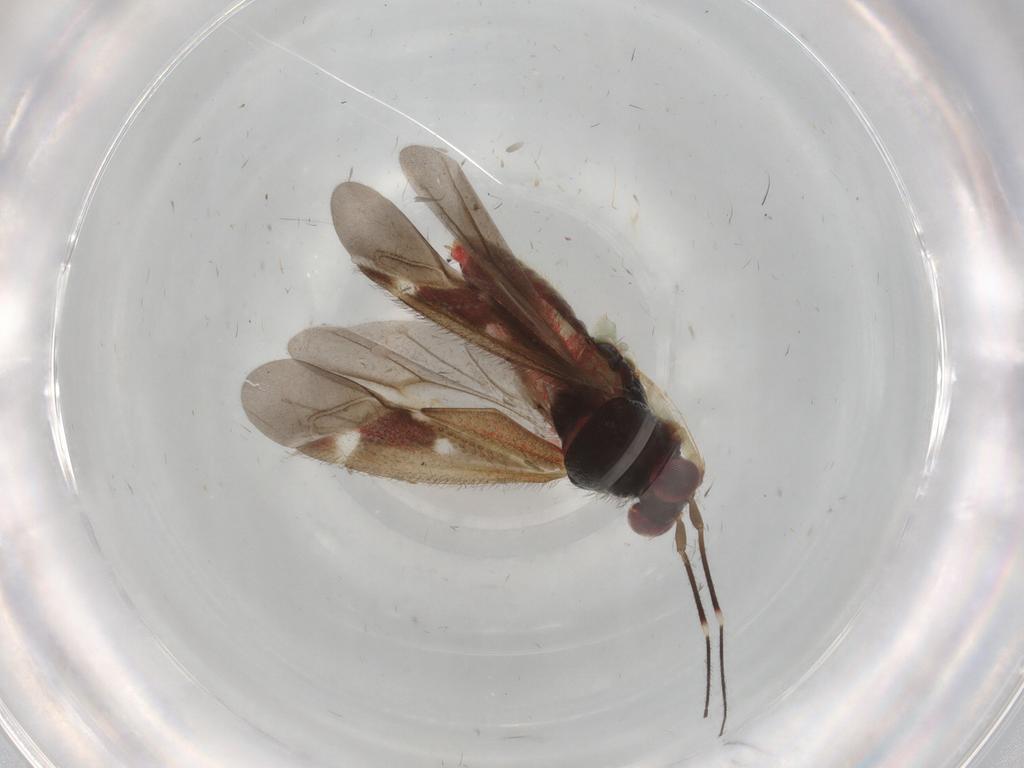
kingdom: Animalia
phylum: Arthropoda
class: Insecta
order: Hemiptera
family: Miridae
